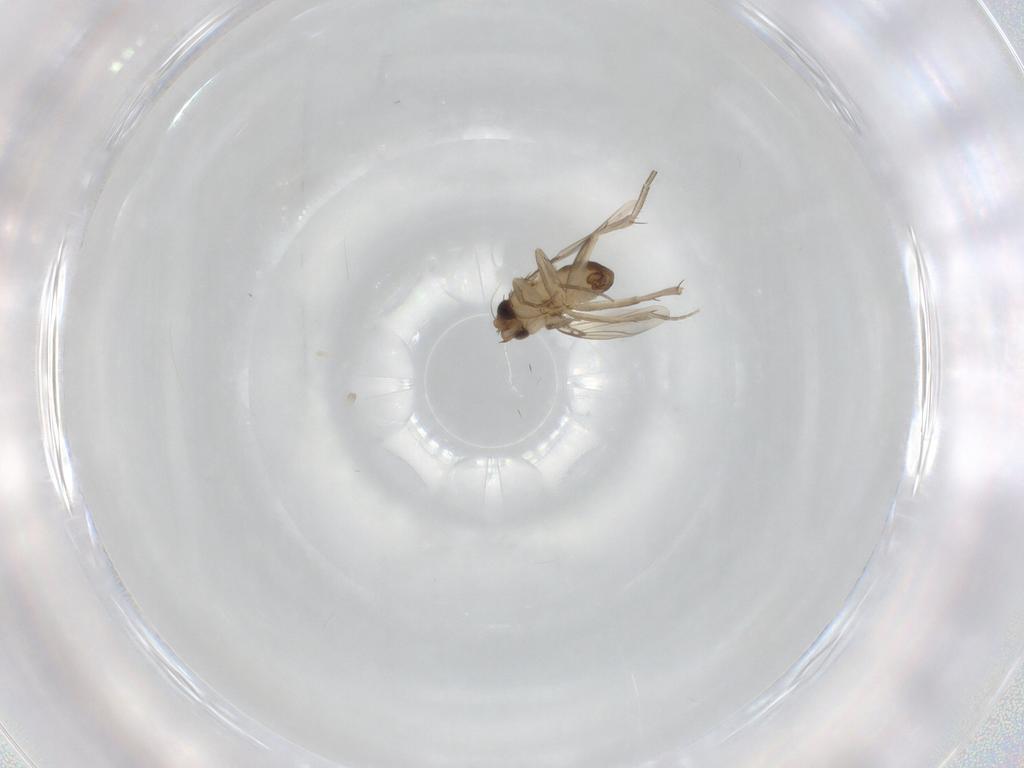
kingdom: Animalia
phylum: Arthropoda
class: Insecta
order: Diptera
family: Phoridae
